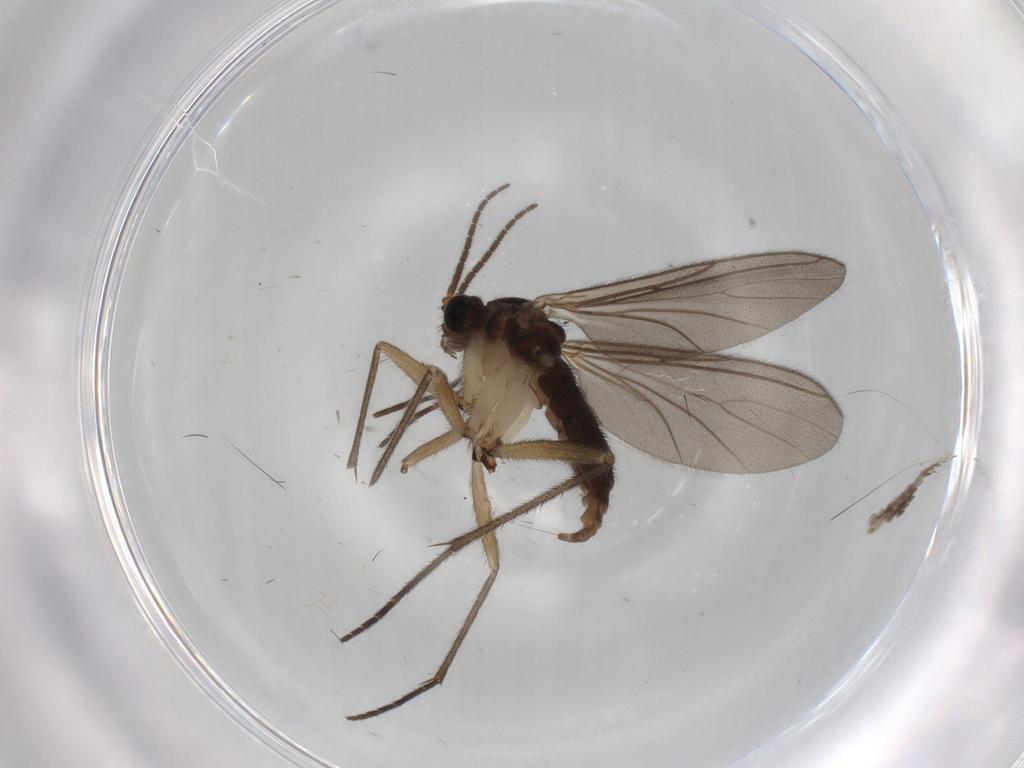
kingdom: Animalia
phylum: Arthropoda
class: Insecta
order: Diptera
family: Sciaridae
